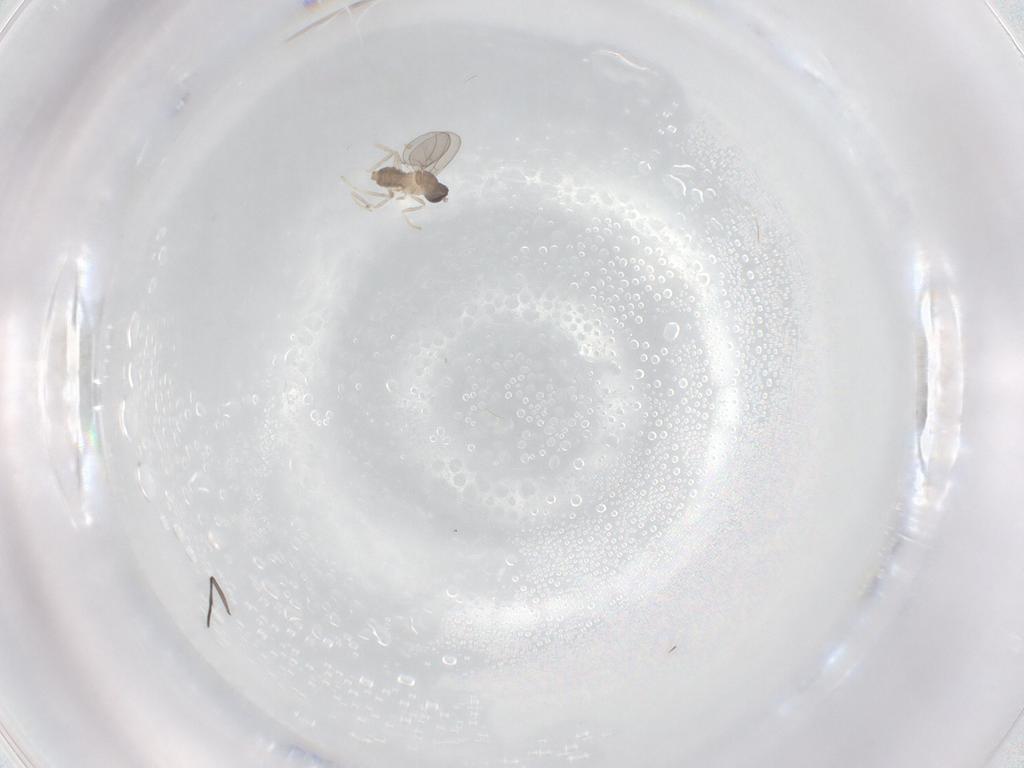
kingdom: Animalia
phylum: Arthropoda
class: Insecta
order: Diptera
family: Cecidomyiidae
